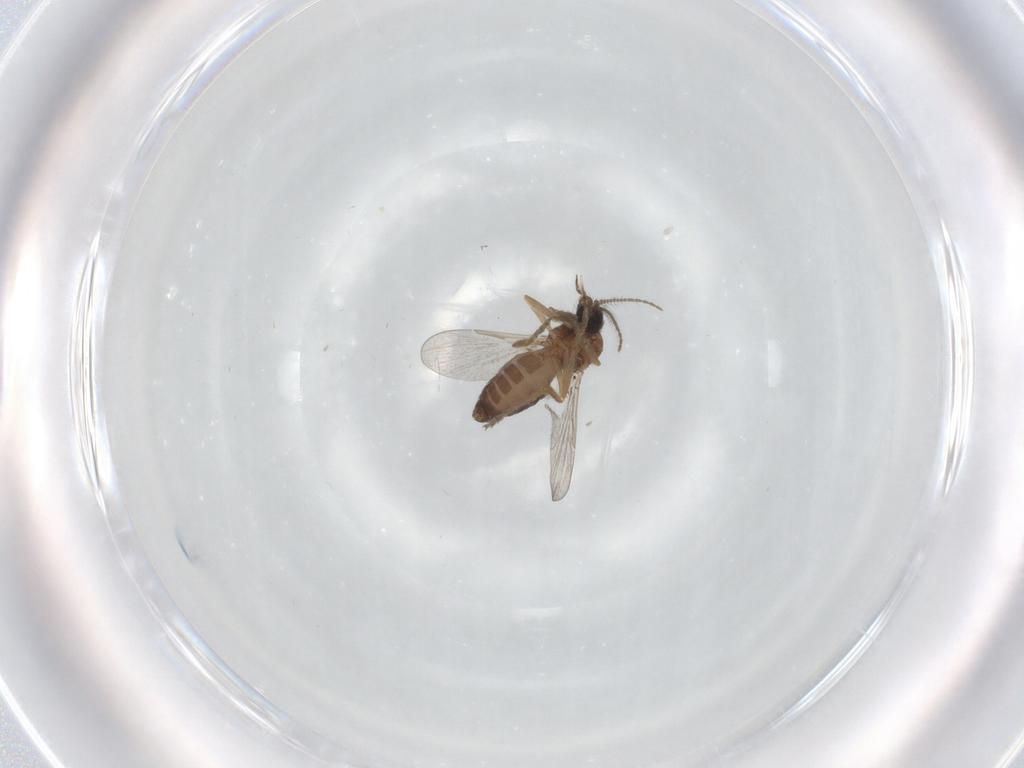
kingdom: Animalia
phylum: Arthropoda
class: Insecta
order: Diptera
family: Ceratopogonidae
